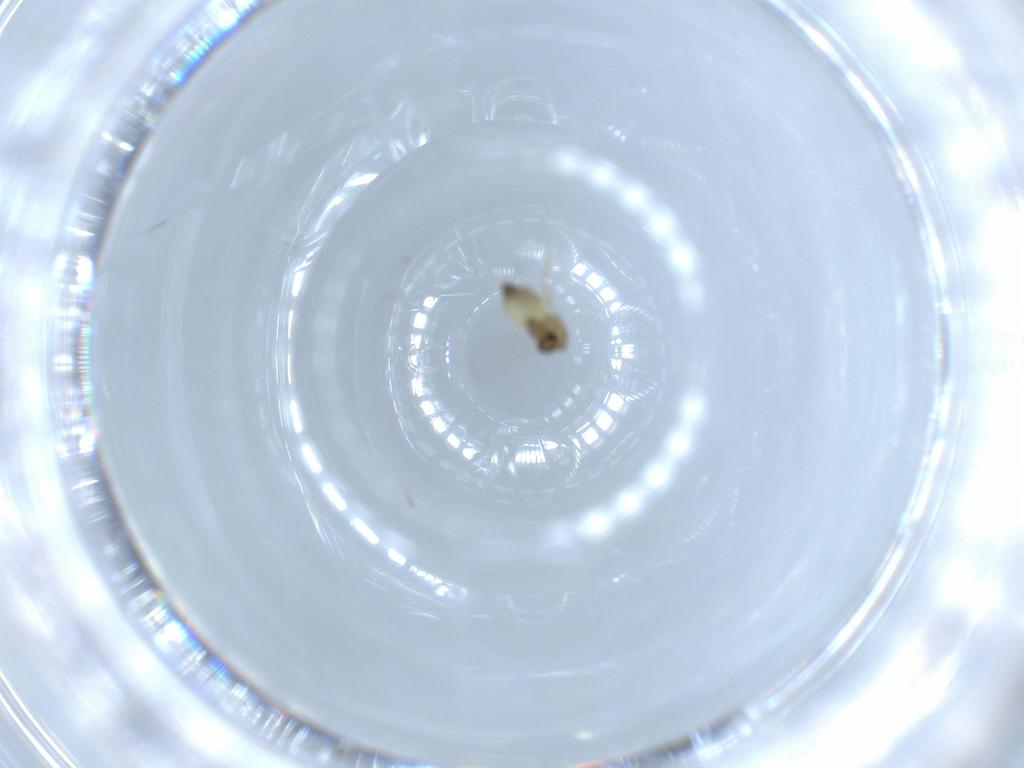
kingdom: Animalia
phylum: Arthropoda
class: Insecta
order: Diptera
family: Chironomidae
